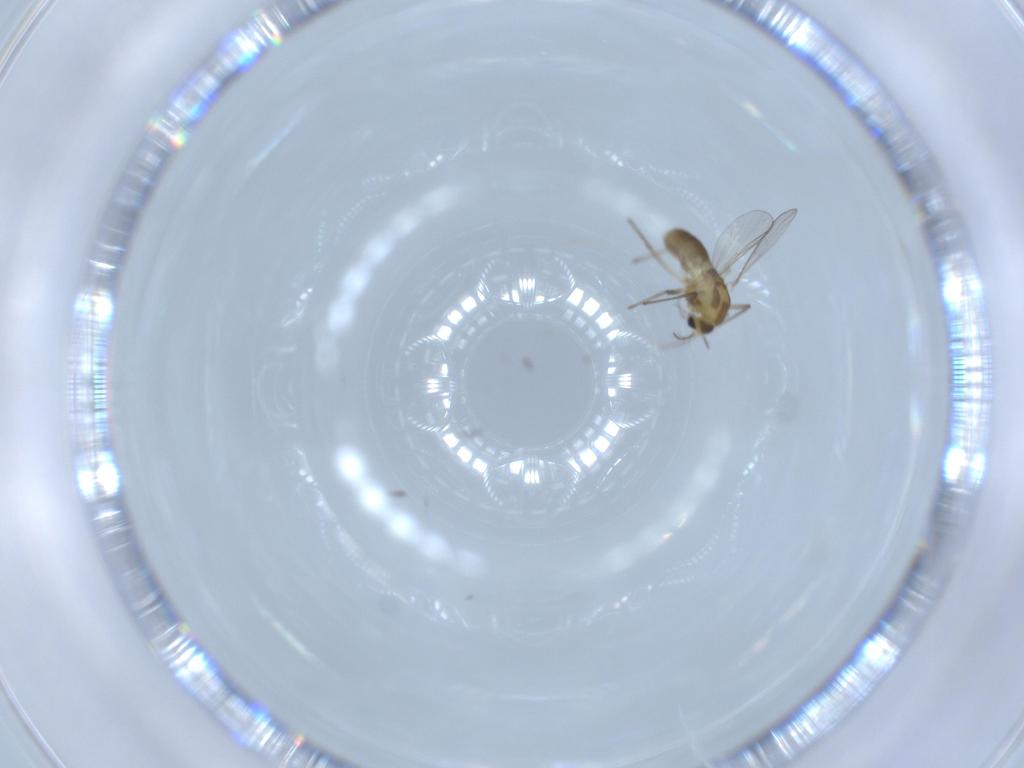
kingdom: Animalia
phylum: Arthropoda
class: Insecta
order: Diptera
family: Chironomidae
